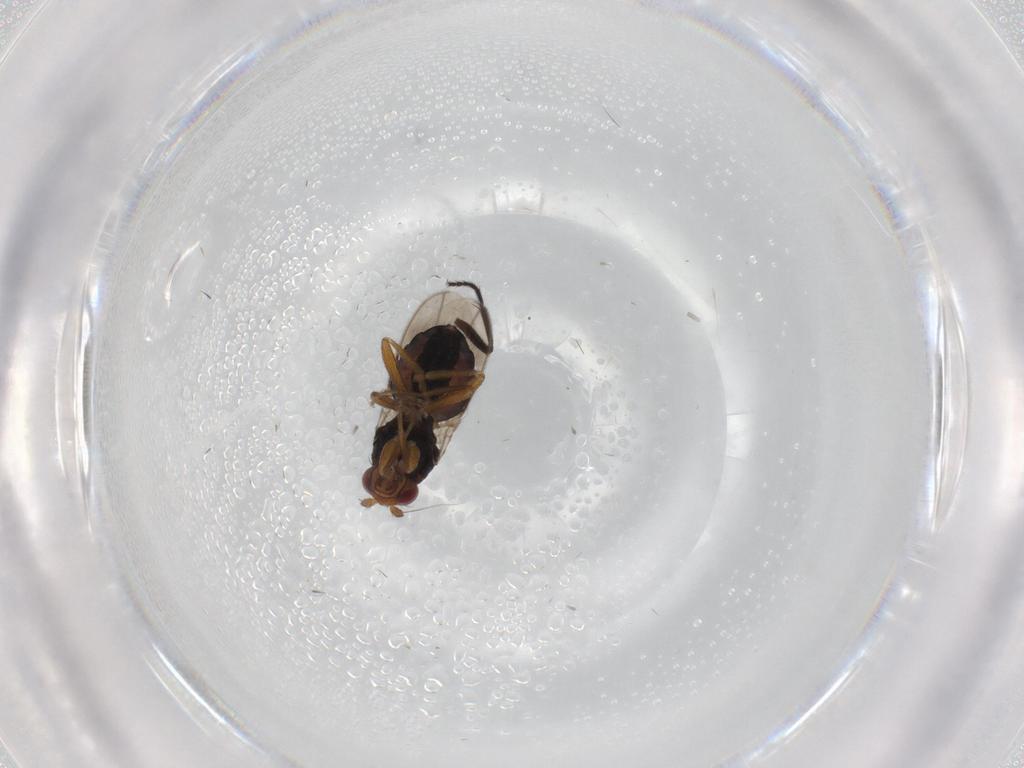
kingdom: Animalia
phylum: Arthropoda
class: Insecta
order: Diptera
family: Sphaeroceridae
